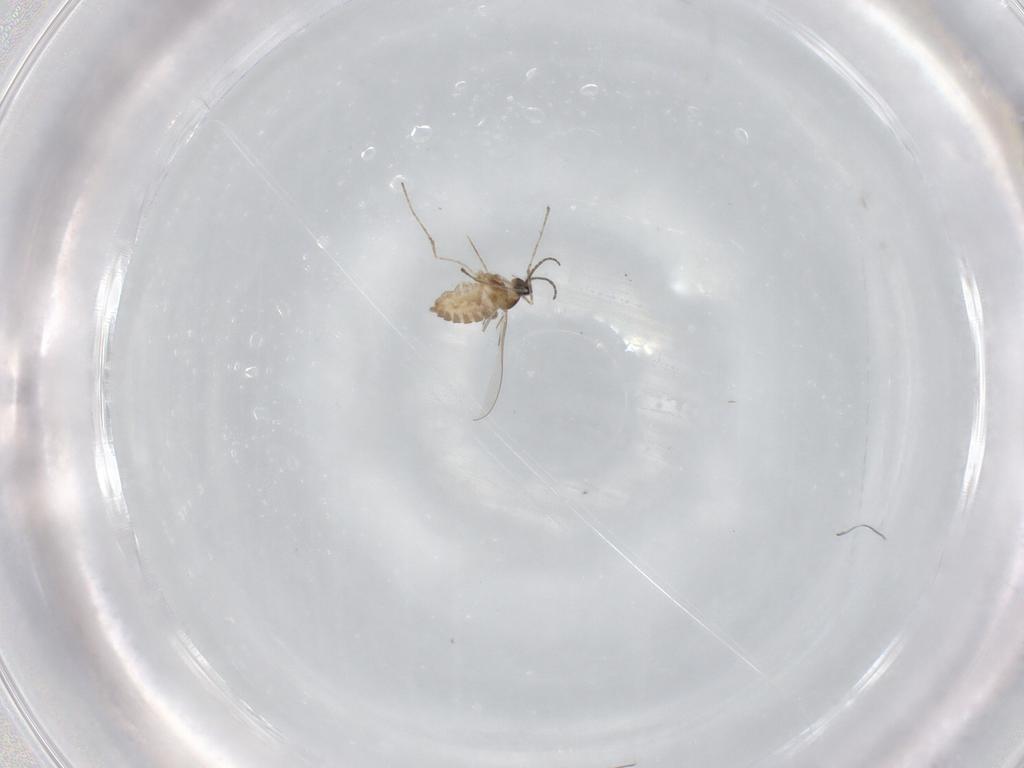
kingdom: Animalia
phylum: Arthropoda
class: Insecta
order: Diptera
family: Cecidomyiidae
